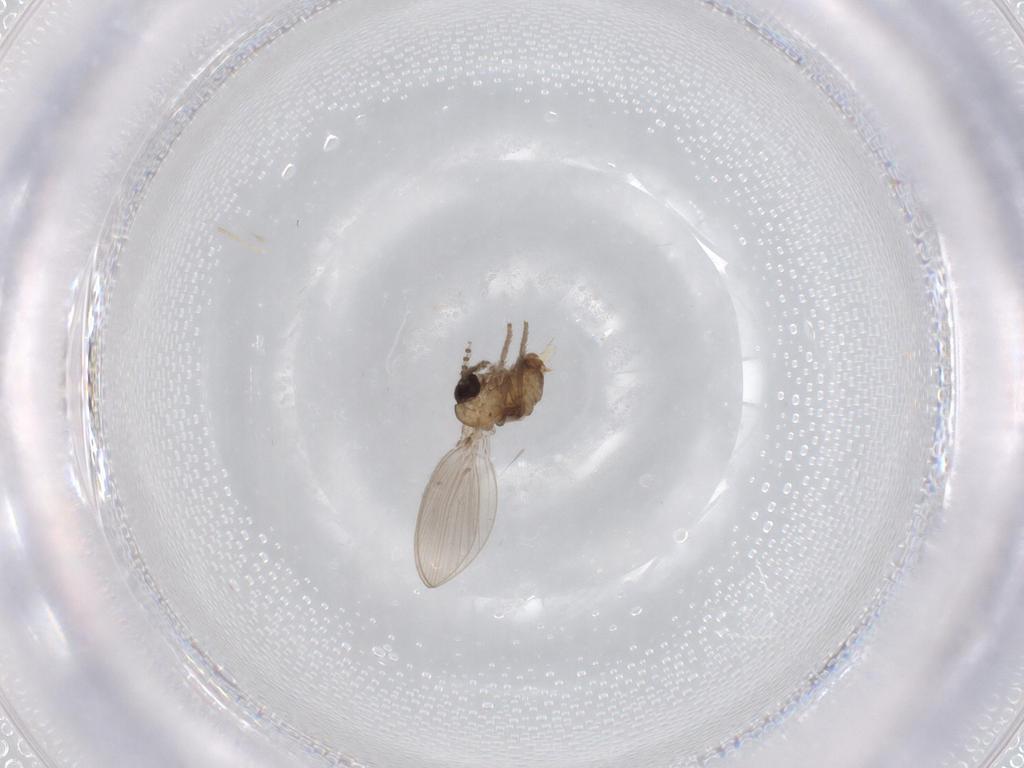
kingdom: Animalia
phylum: Arthropoda
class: Insecta
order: Diptera
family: Psychodidae
